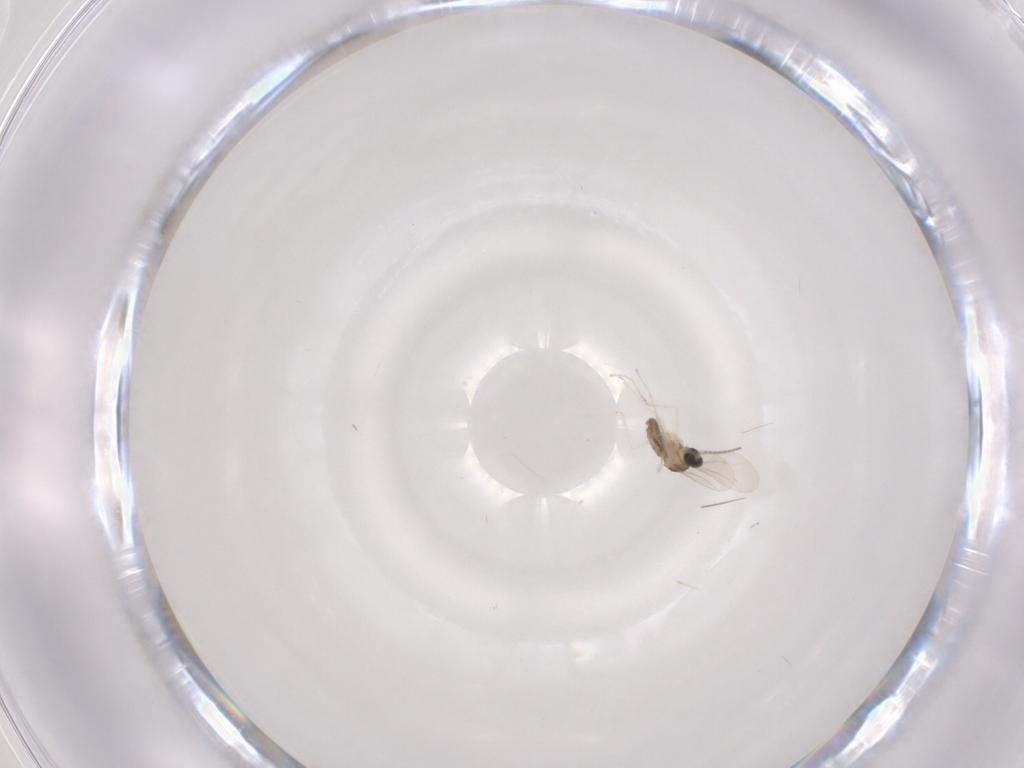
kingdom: Animalia
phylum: Arthropoda
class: Insecta
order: Diptera
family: Cecidomyiidae
